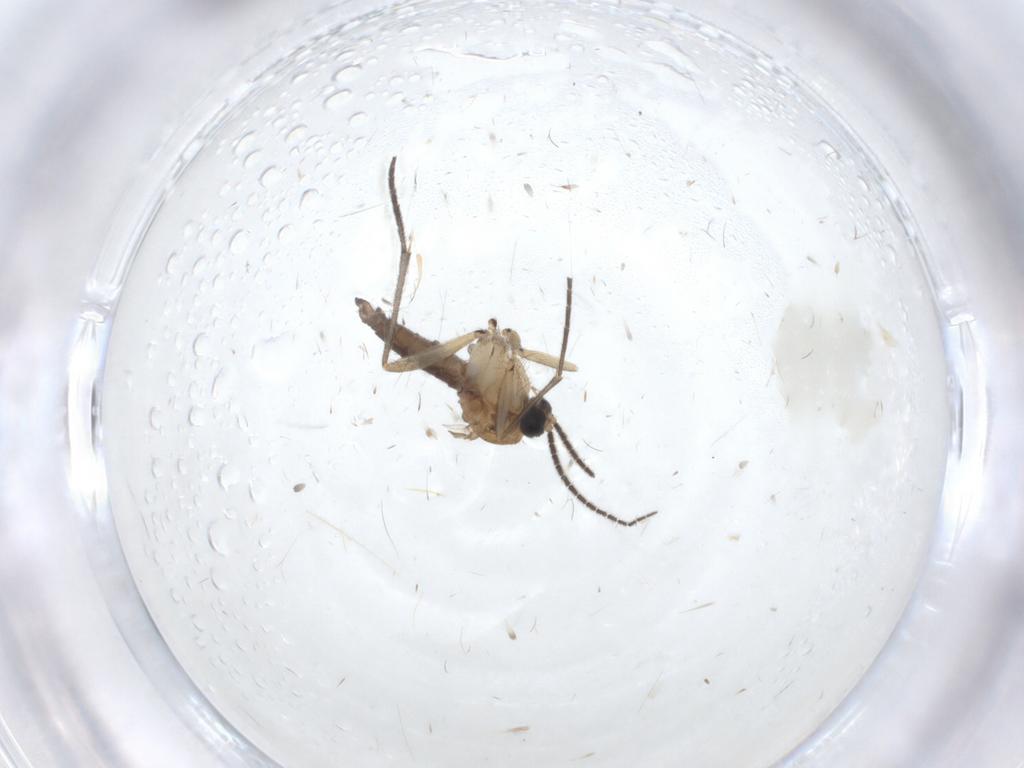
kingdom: Animalia
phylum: Arthropoda
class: Insecta
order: Diptera
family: Sciaridae
